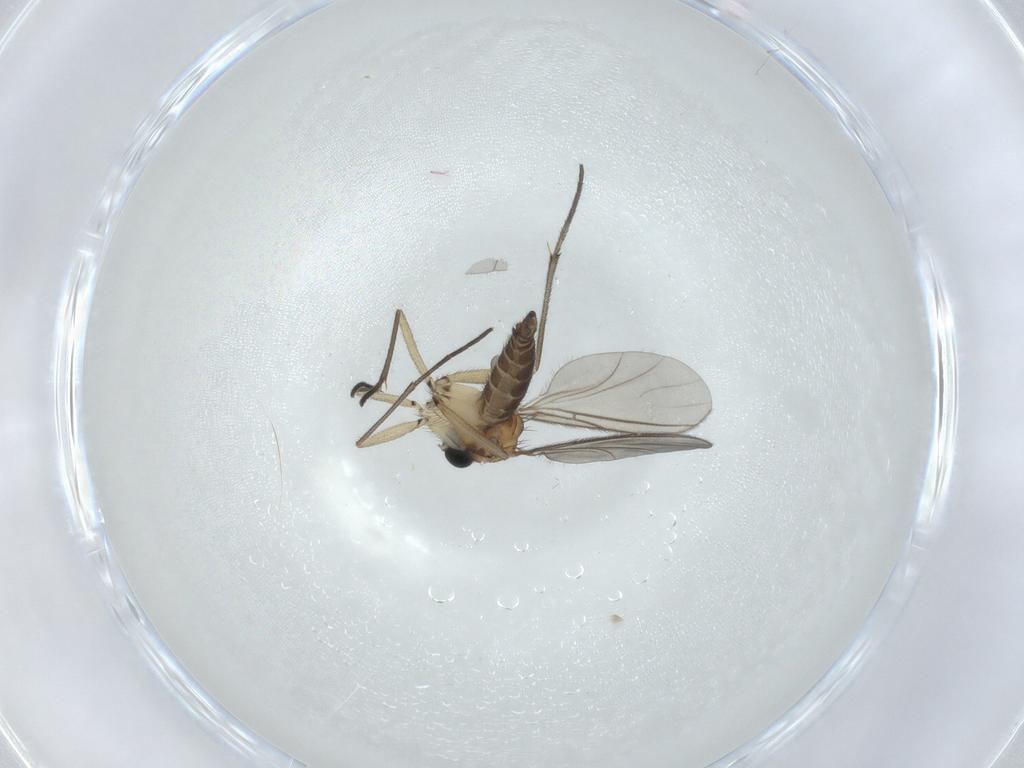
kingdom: Animalia
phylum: Arthropoda
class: Insecta
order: Diptera
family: Sciaridae
